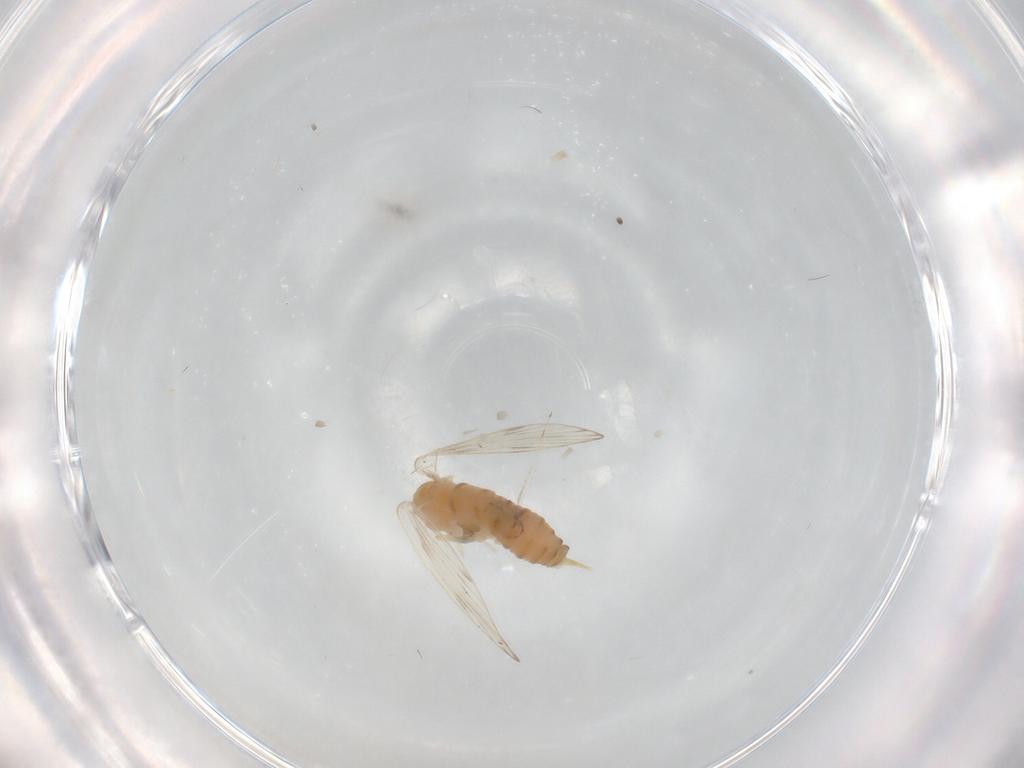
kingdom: Animalia
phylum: Arthropoda
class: Insecta
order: Diptera
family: Psychodidae
